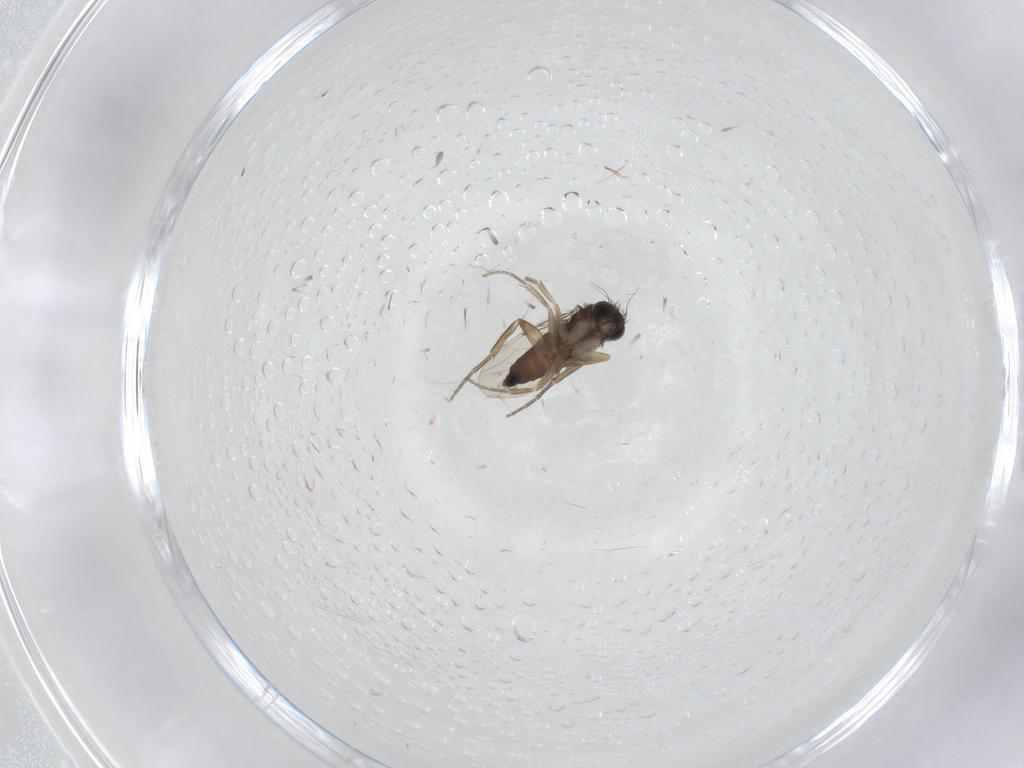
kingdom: Animalia
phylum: Arthropoda
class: Insecta
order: Diptera
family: Phoridae
